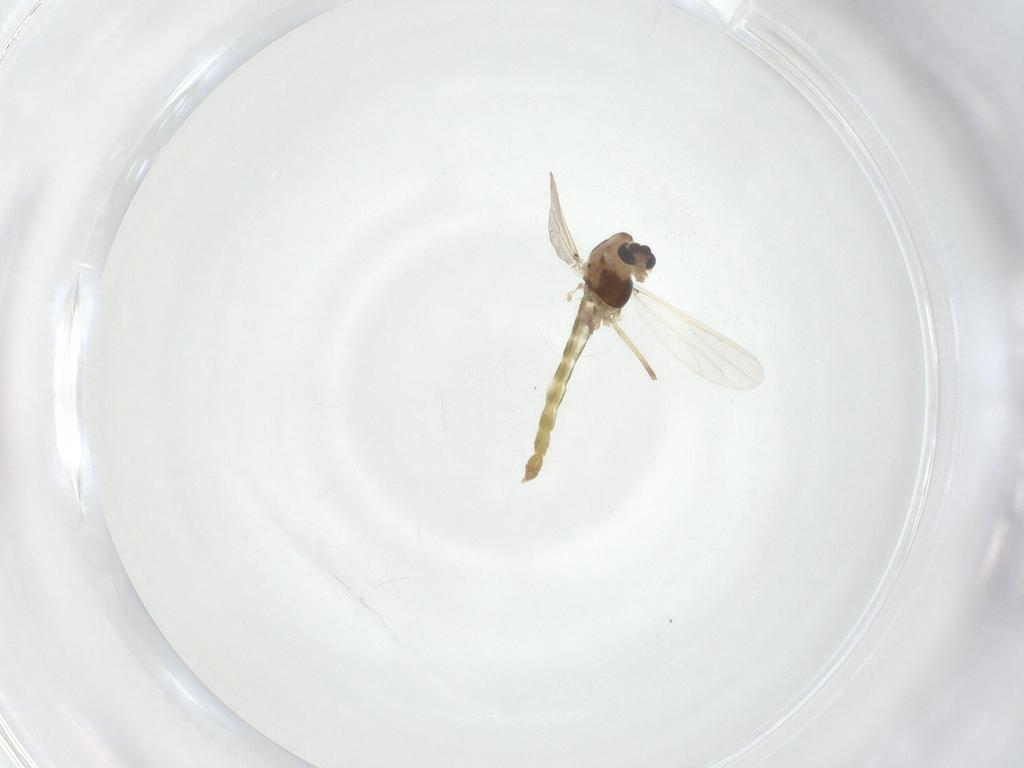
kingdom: Animalia
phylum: Arthropoda
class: Insecta
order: Diptera
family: Chironomidae
